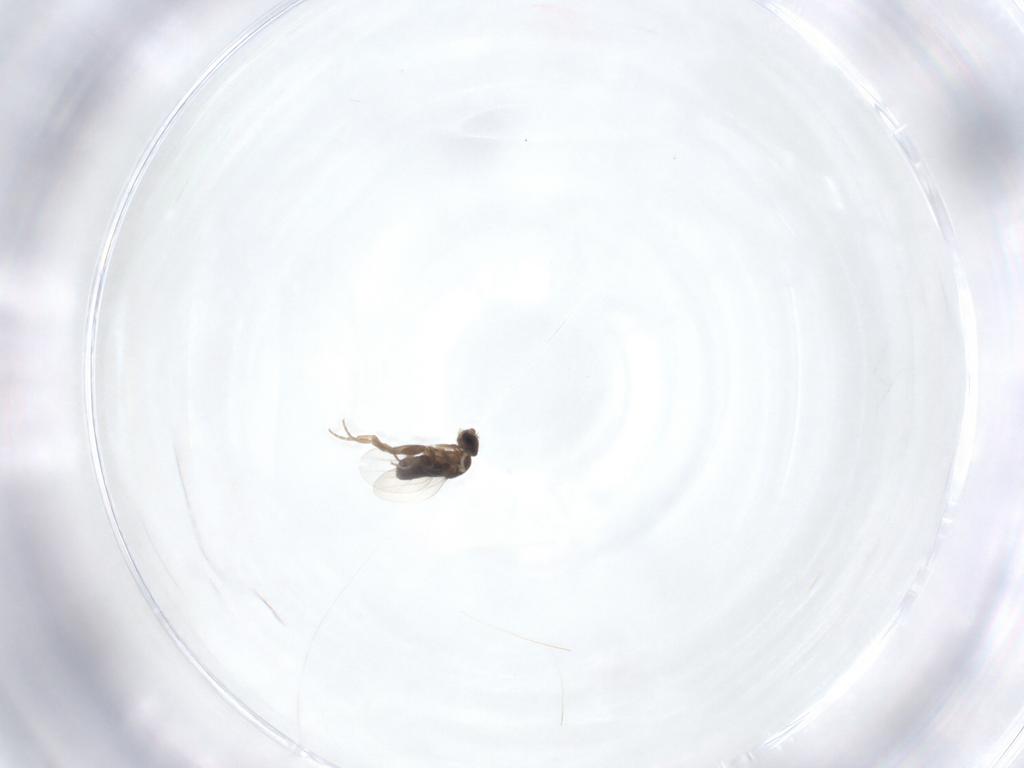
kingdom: Animalia
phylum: Arthropoda
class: Insecta
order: Diptera
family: Phoridae
